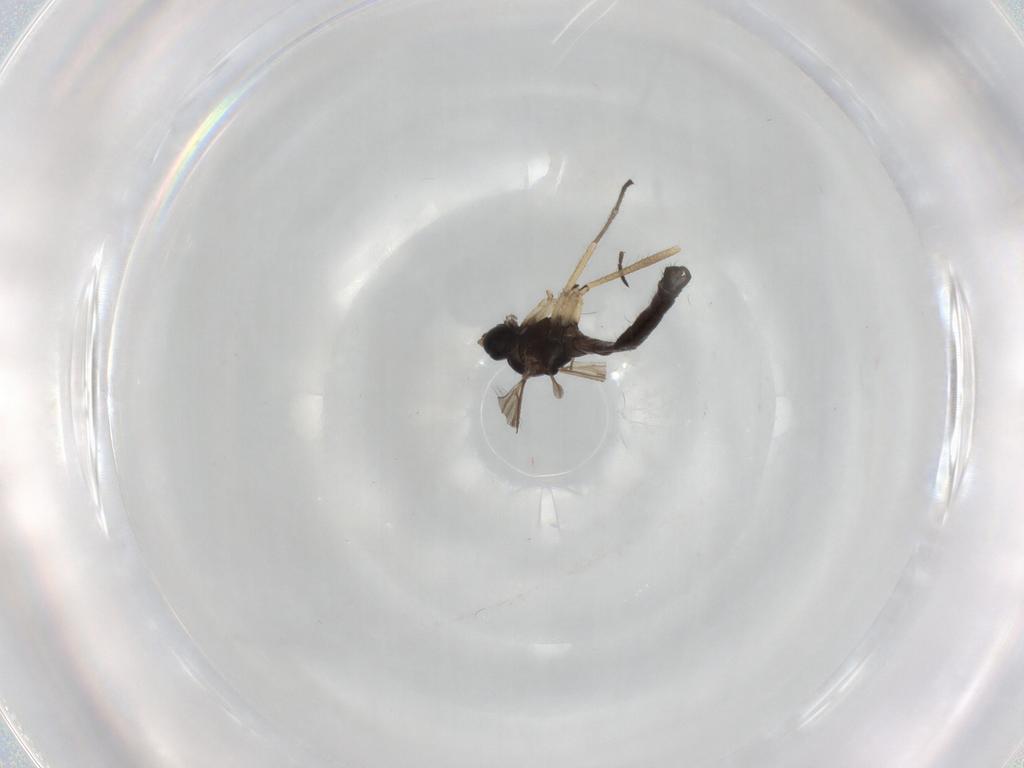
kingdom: Animalia
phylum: Arthropoda
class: Insecta
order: Diptera
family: Sciaridae
